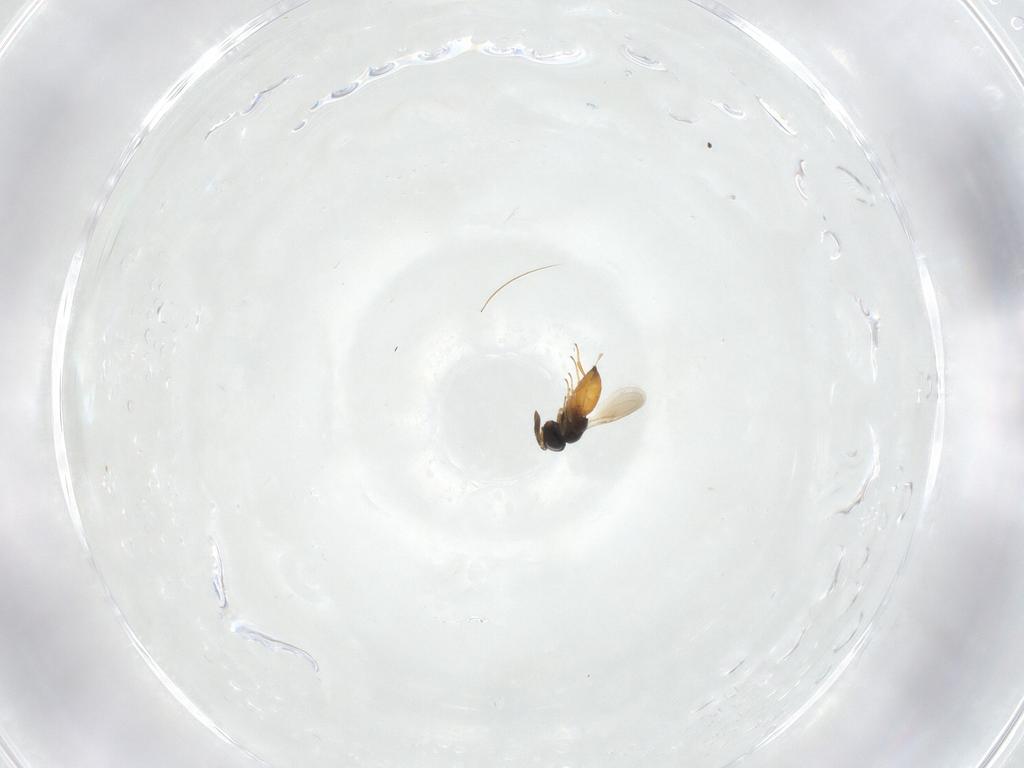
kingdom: Animalia
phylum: Arthropoda
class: Insecta
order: Hymenoptera
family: Scelionidae
